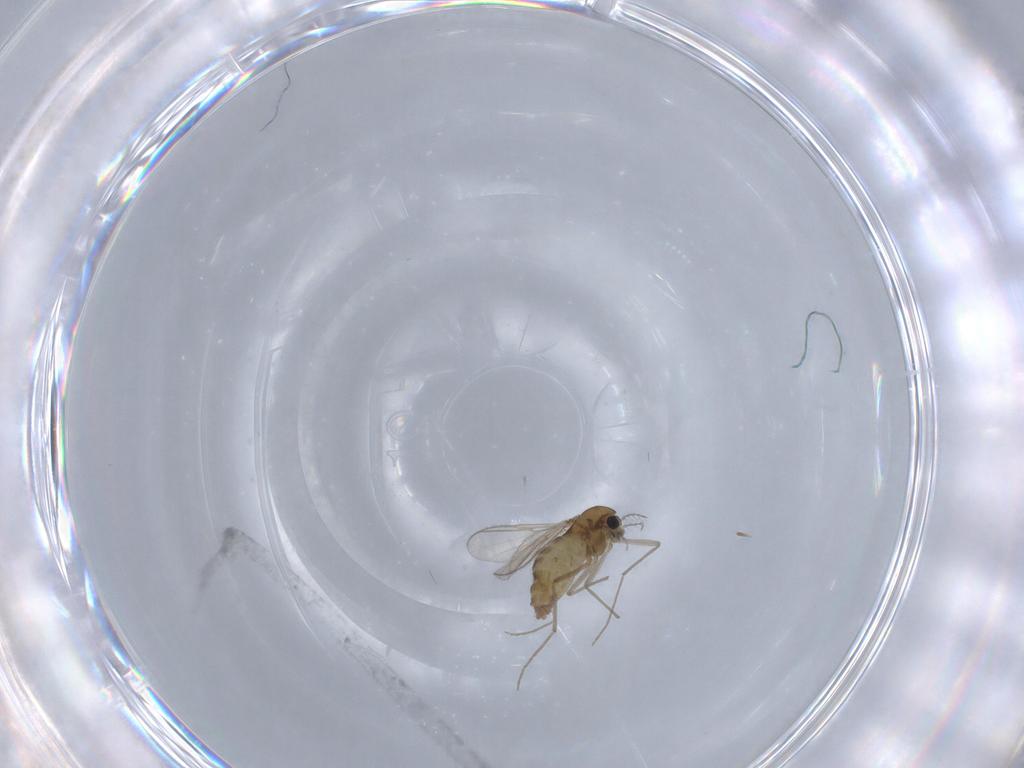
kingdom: Animalia
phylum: Arthropoda
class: Insecta
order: Diptera
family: Chironomidae
